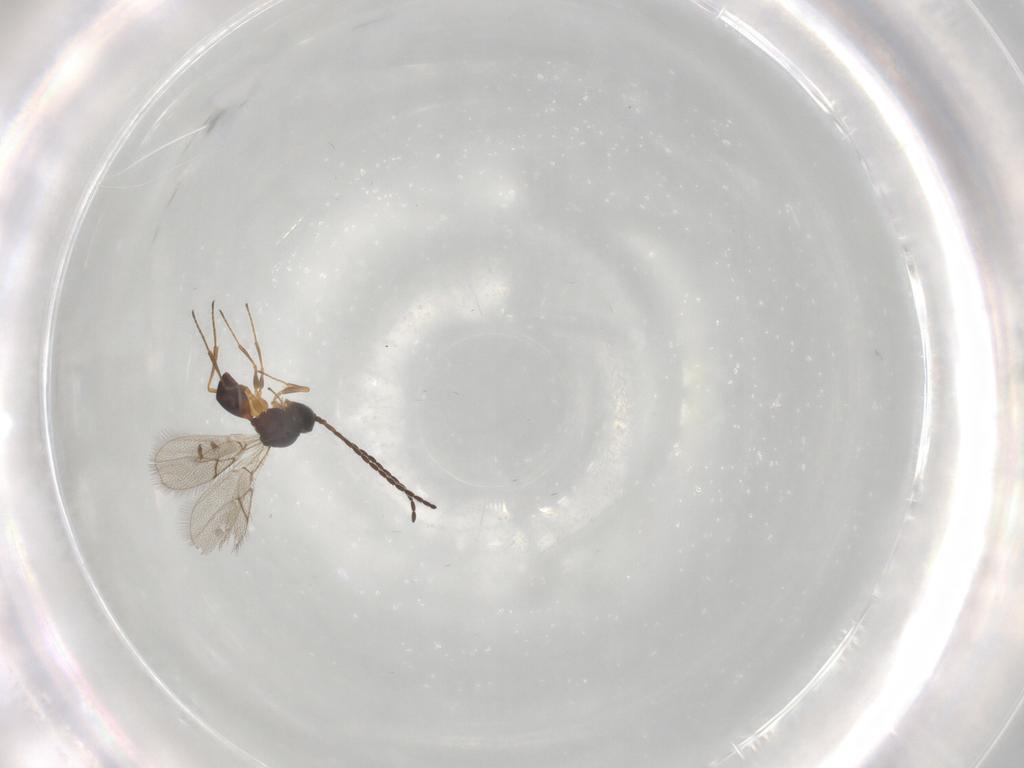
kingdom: Animalia
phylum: Arthropoda
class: Insecta
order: Hymenoptera
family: Figitidae
